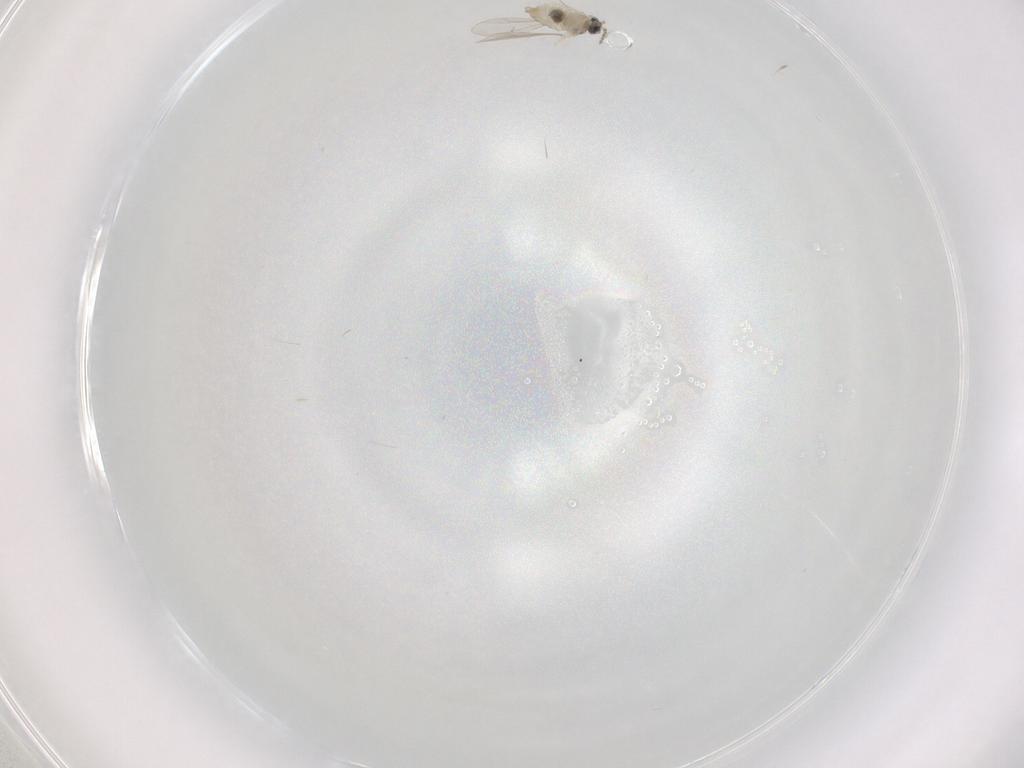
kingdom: Animalia
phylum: Arthropoda
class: Insecta
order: Diptera
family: Cecidomyiidae
